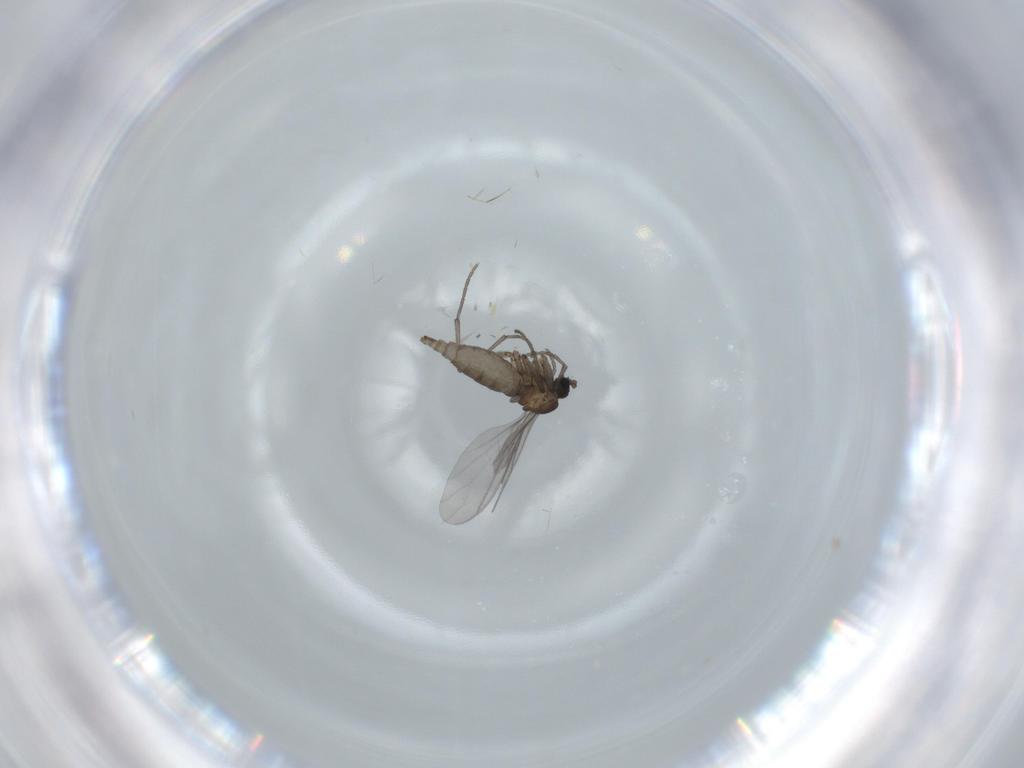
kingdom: Animalia
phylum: Arthropoda
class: Insecta
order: Diptera
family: Sciaridae
